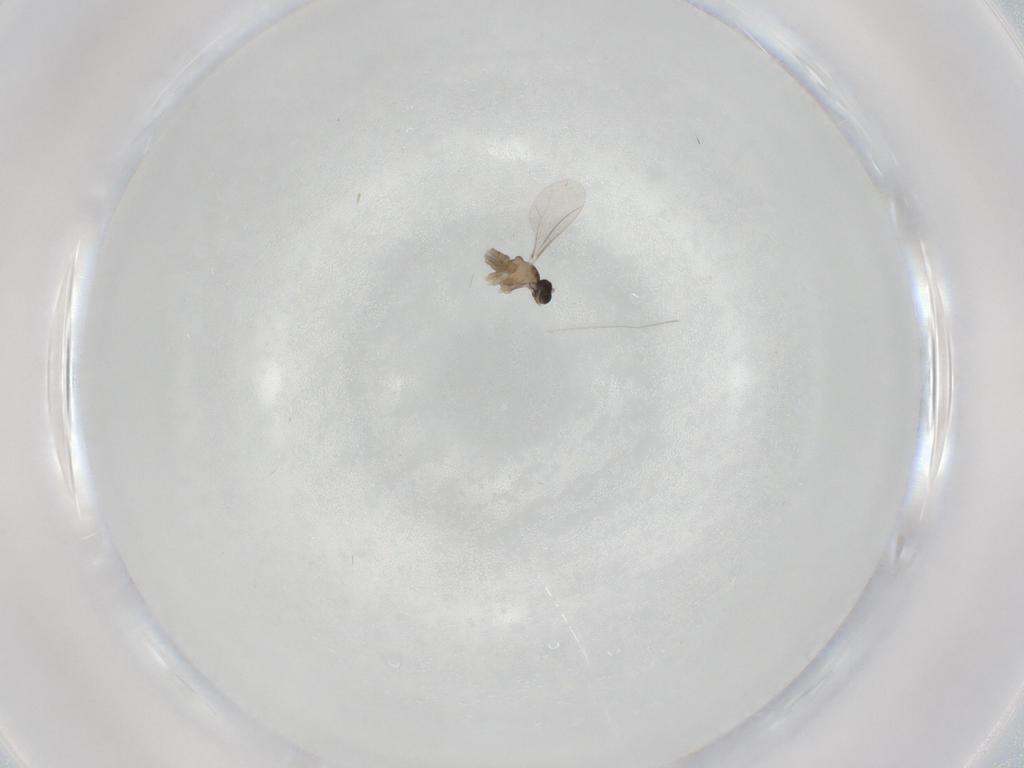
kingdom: Animalia
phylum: Arthropoda
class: Insecta
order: Diptera
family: Cecidomyiidae
